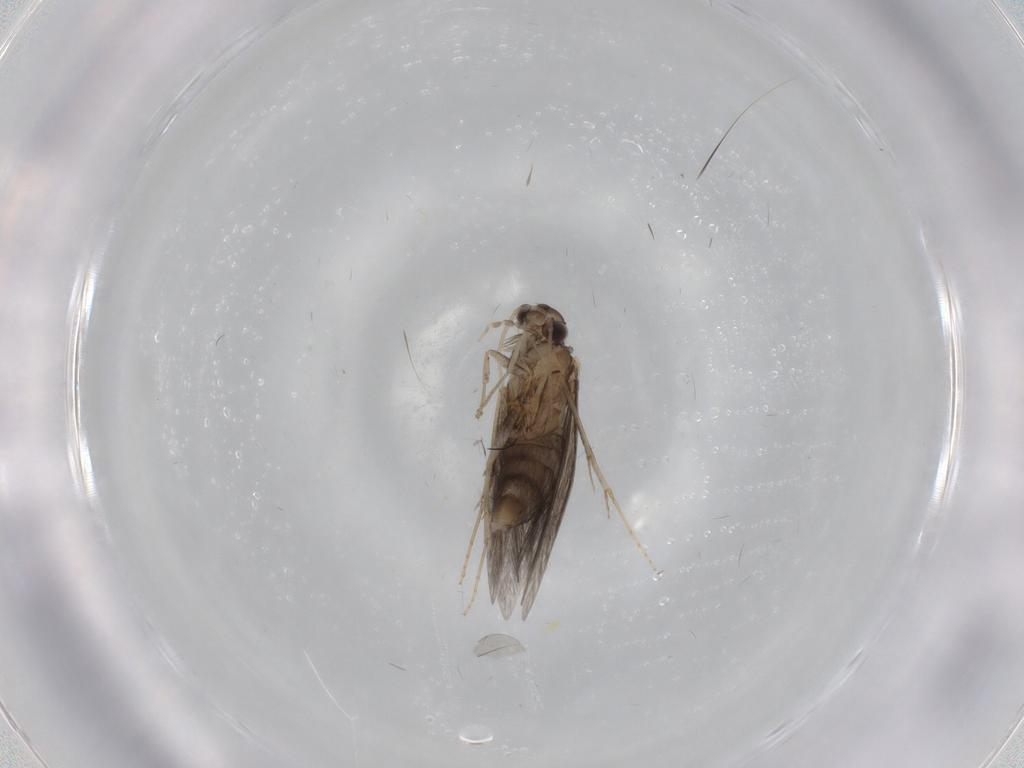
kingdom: Animalia
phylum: Arthropoda
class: Insecta
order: Trichoptera
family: Hydroptilidae
